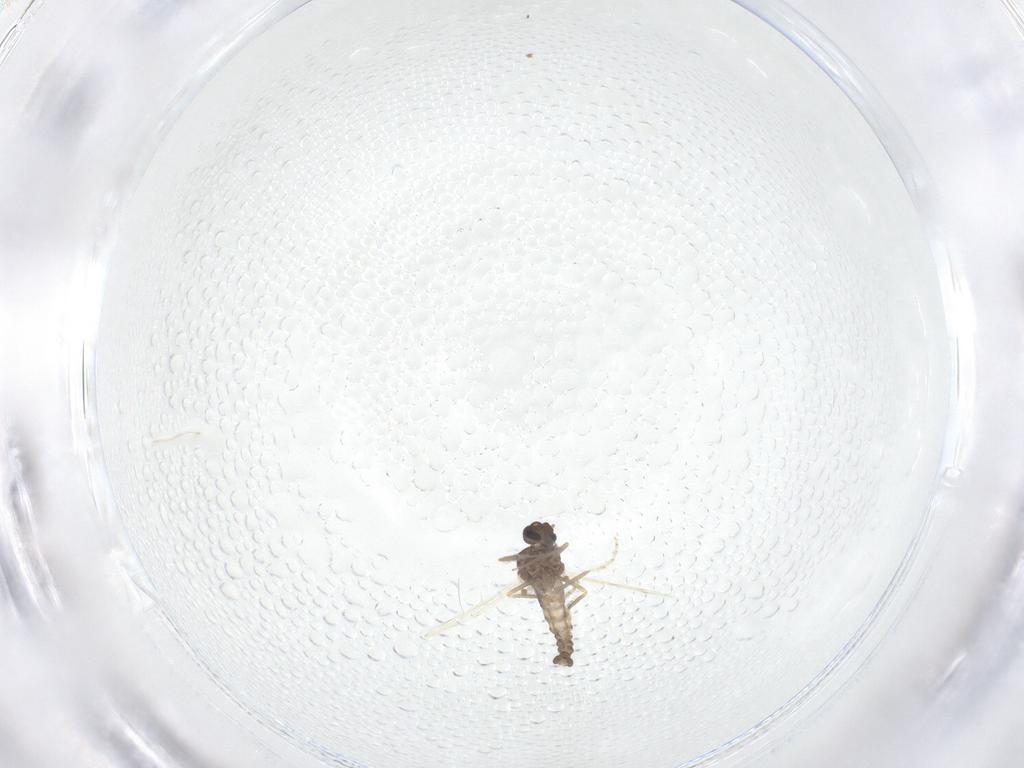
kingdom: Animalia
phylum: Arthropoda
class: Insecta
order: Diptera
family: Ceratopogonidae
